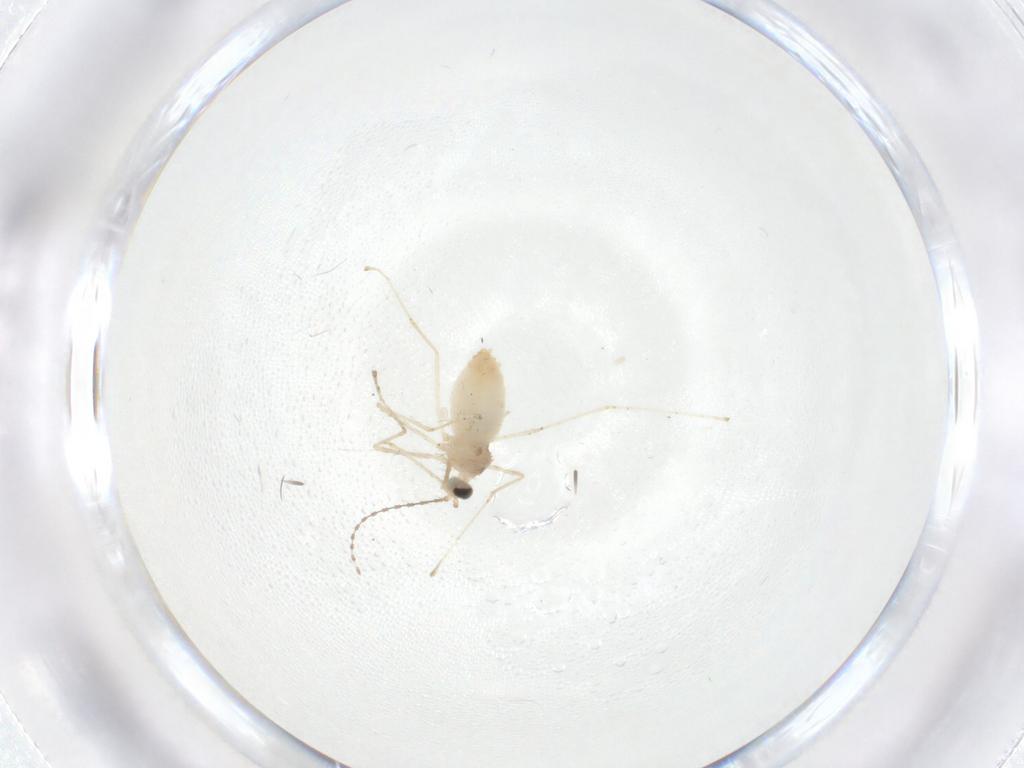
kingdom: Animalia
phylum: Arthropoda
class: Insecta
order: Diptera
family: Cecidomyiidae
